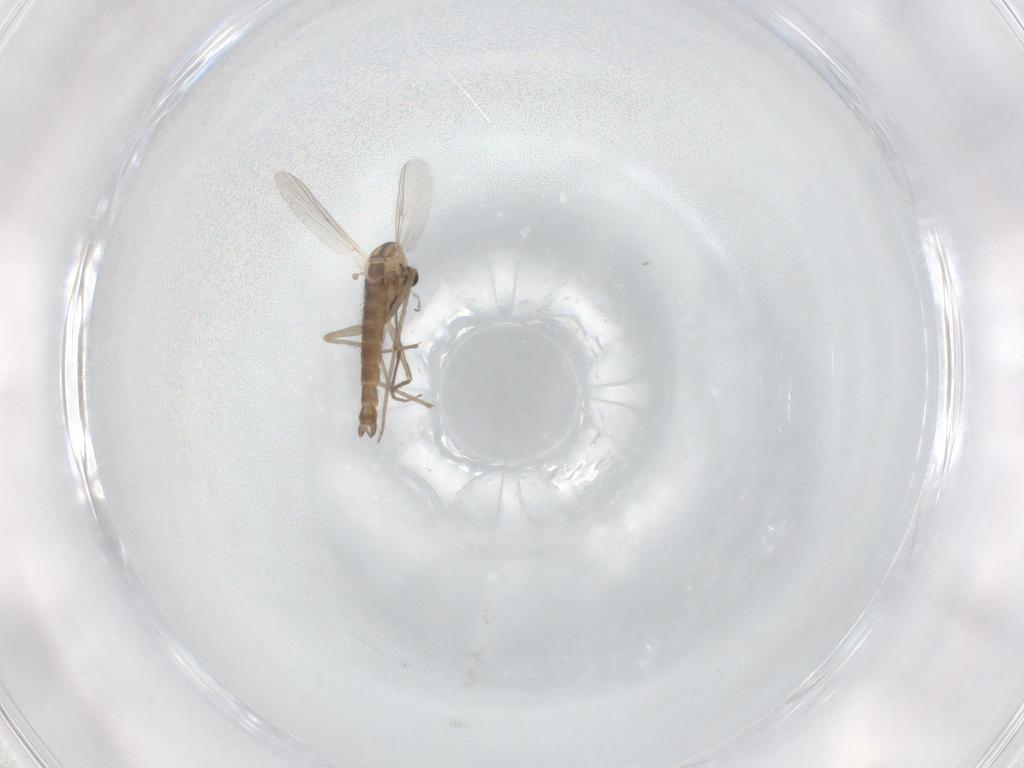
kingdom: Animalia
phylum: Arthropoda
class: Insecta
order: Diptera
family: Chironomidae
